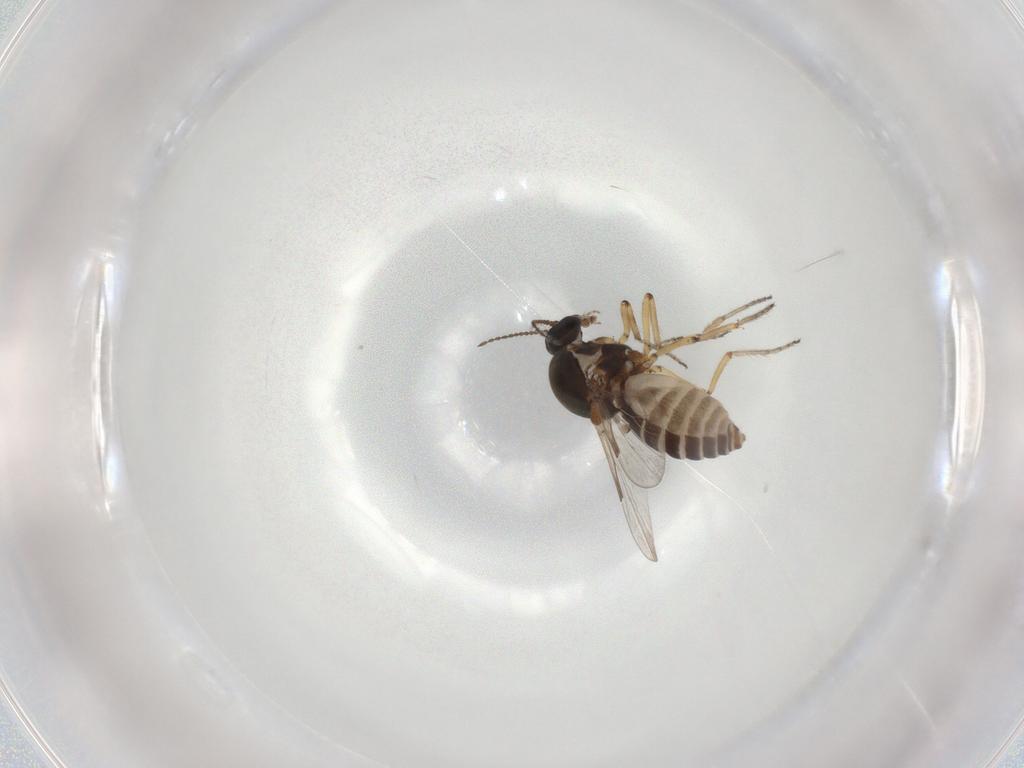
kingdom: Animalia
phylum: Arthropoda
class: Insecta
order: Diptera
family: Ceratopogonidae
